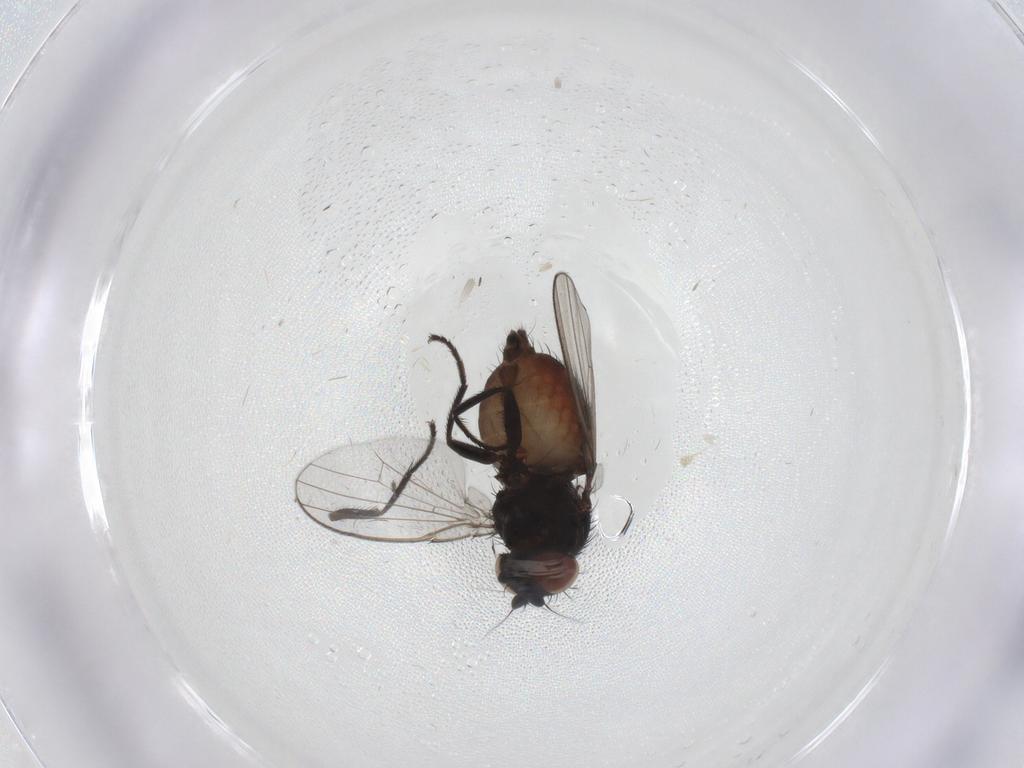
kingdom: Animalia
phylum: Arthropoda
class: Insecta
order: Diptera
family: Milichiidae
